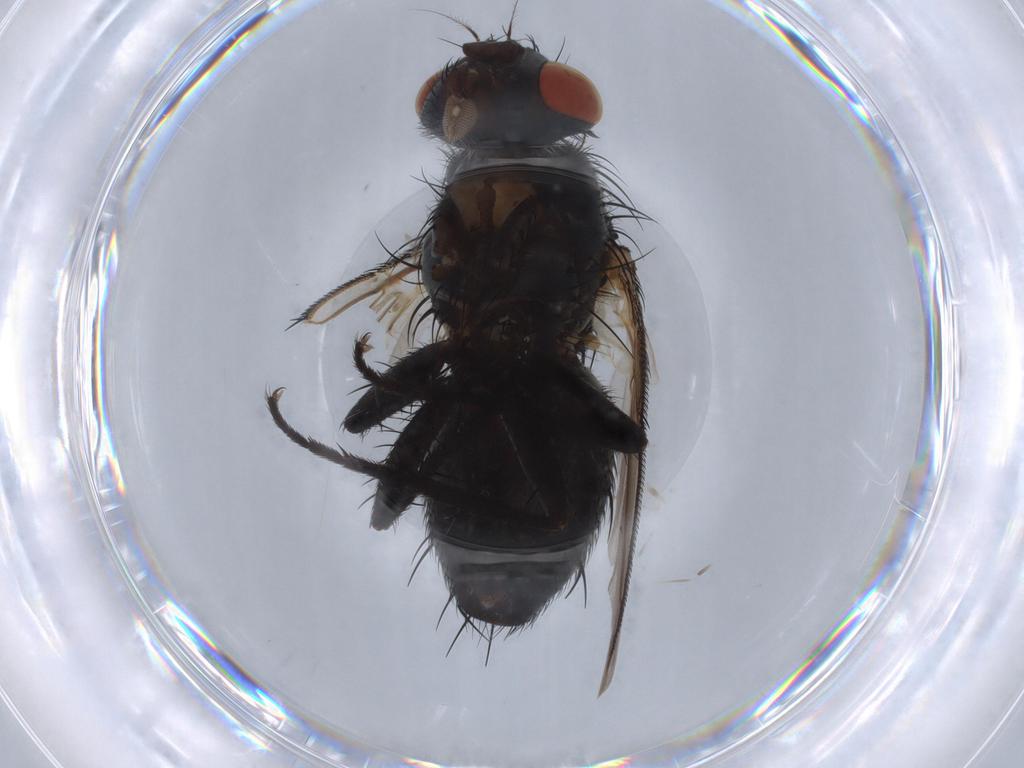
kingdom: Animalia
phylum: Arthropoda
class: Insecta
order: Diptera
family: Sarcophagidae
